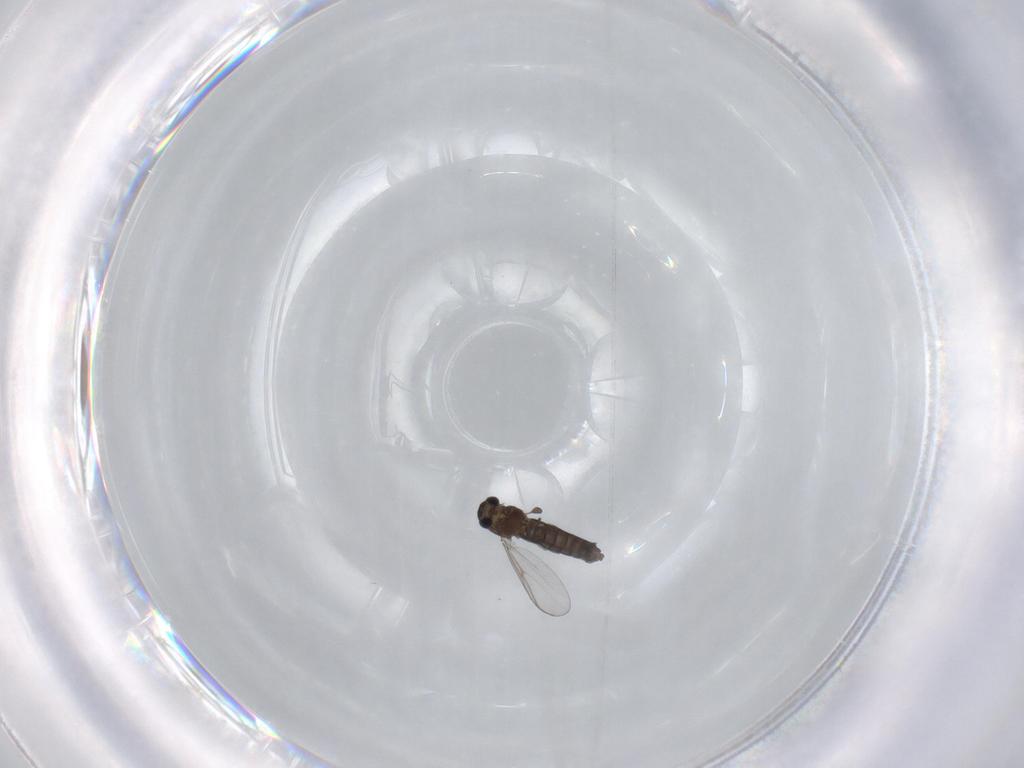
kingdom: Animalia
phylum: Arthropoda
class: Insecta
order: Diptera
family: Chironomidae
